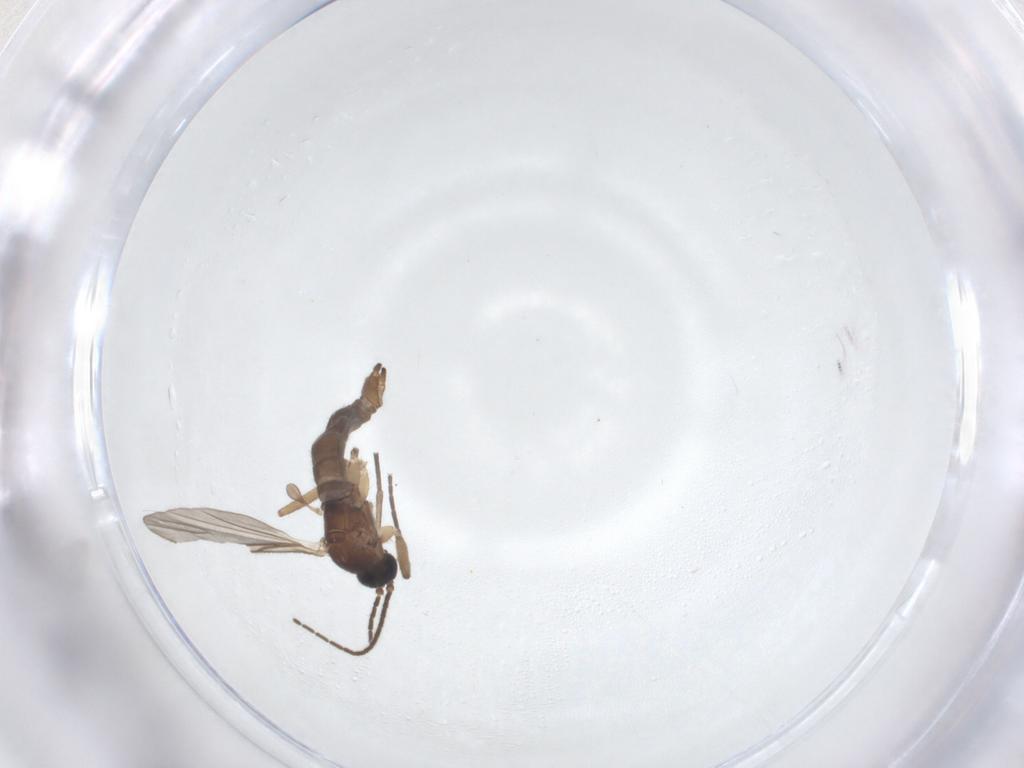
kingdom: Animalia
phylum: Arthropoda
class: Insecta
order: Diptera
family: Sciaridae
